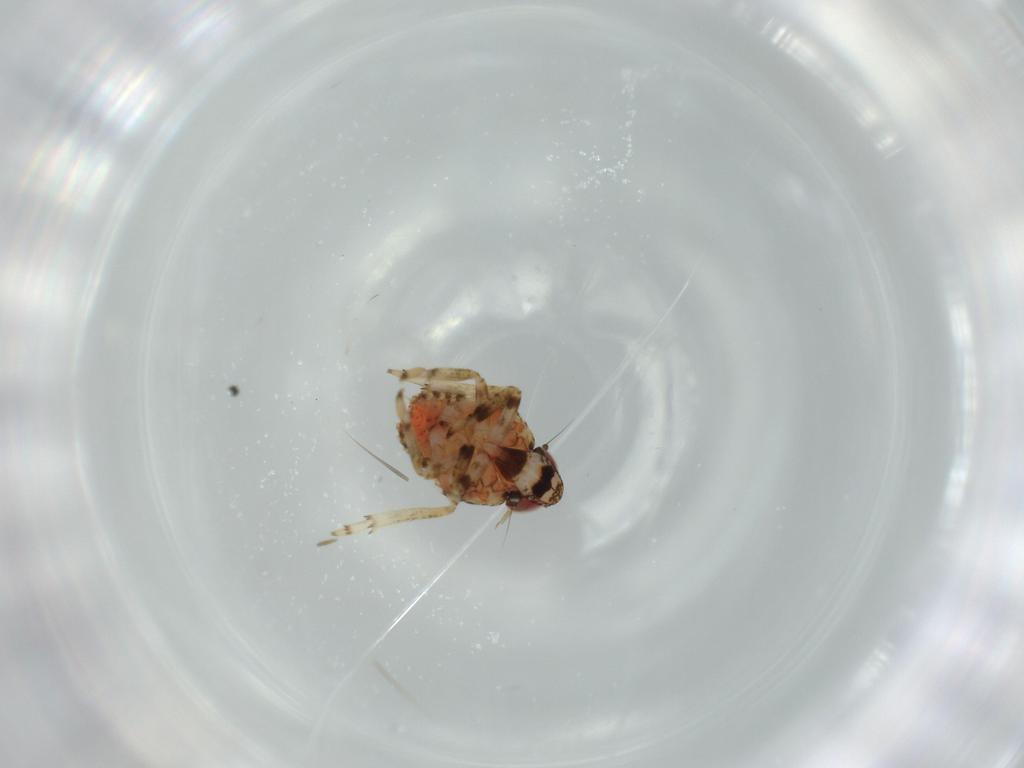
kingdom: Animalia
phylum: Arthropoda
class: Insecta
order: Hemiptera
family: Issidae
